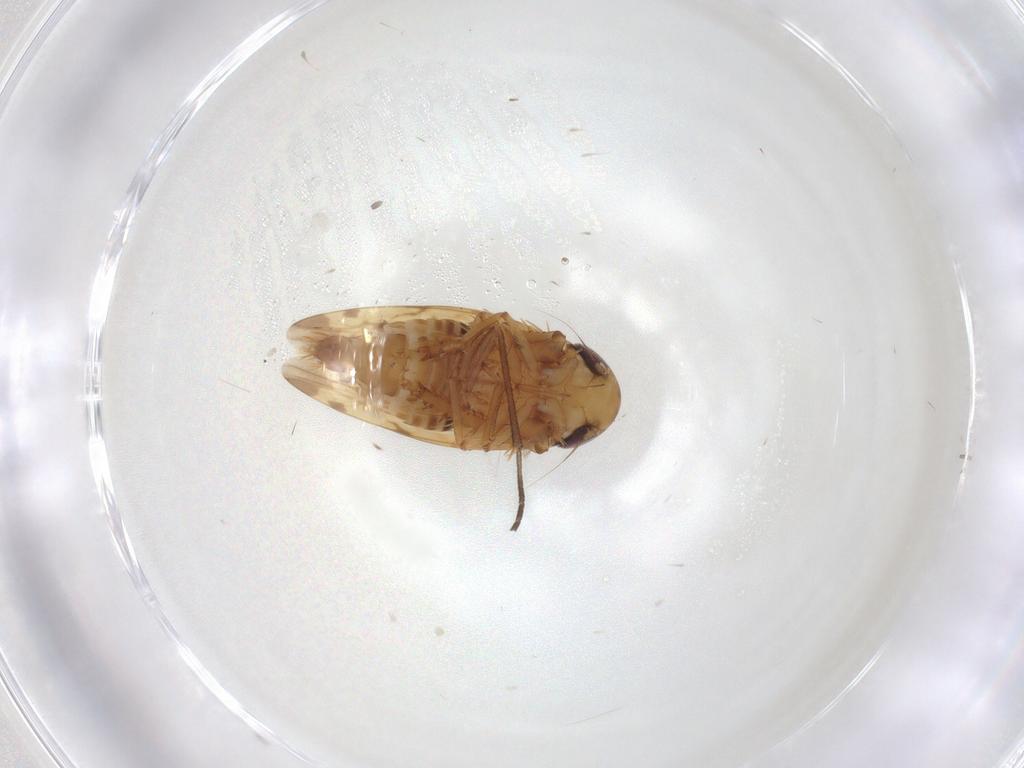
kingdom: Animalia
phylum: Arthropoda
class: Insecta
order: Hemiptera
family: Cicadellidae
